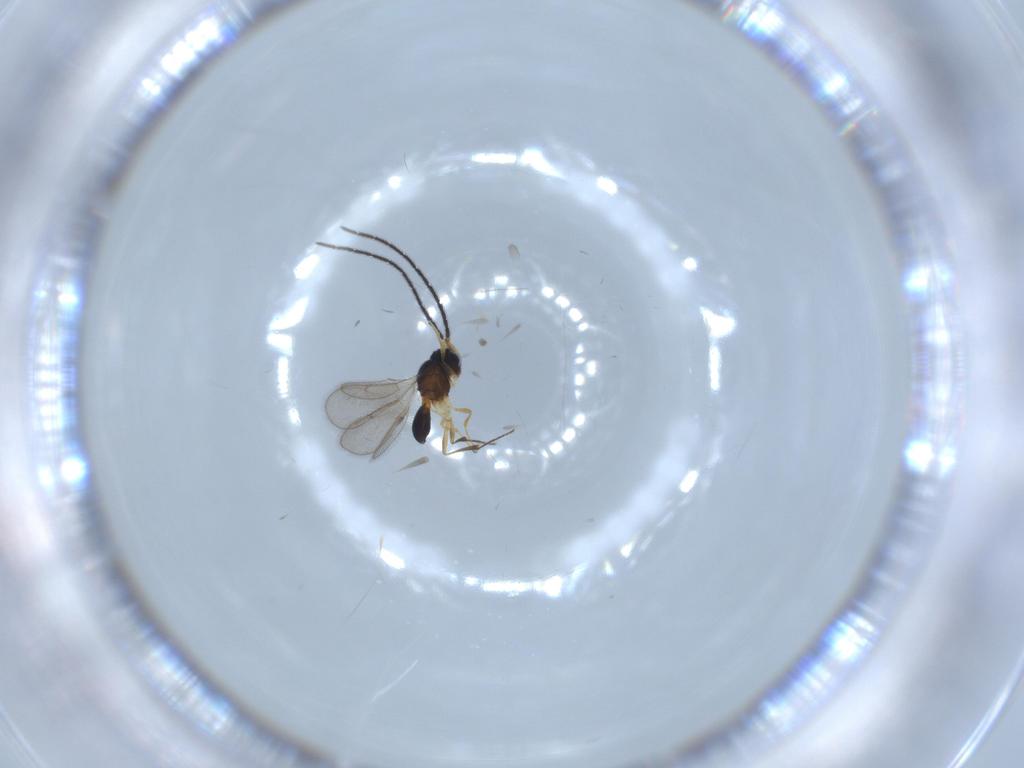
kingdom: Animalia
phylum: Arthropoda
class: Insecta
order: Hymenoptera
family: Scelionidae
